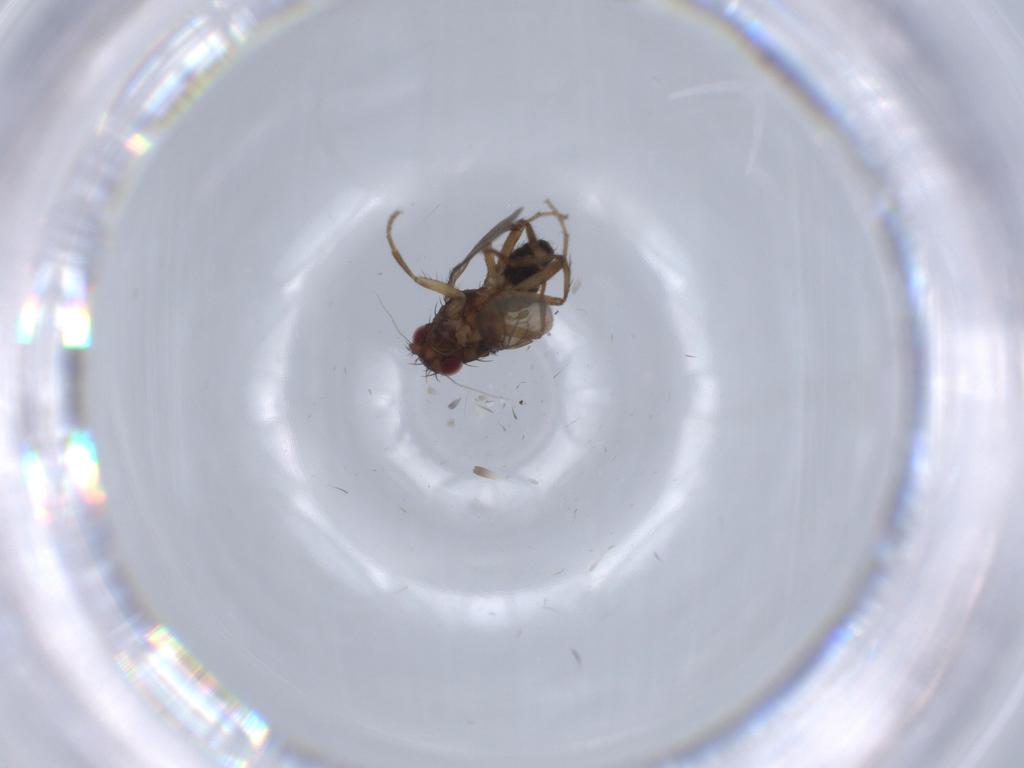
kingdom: Animalia
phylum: Arthropoda
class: Insecta
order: Diptera
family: Sphaeroceridae
